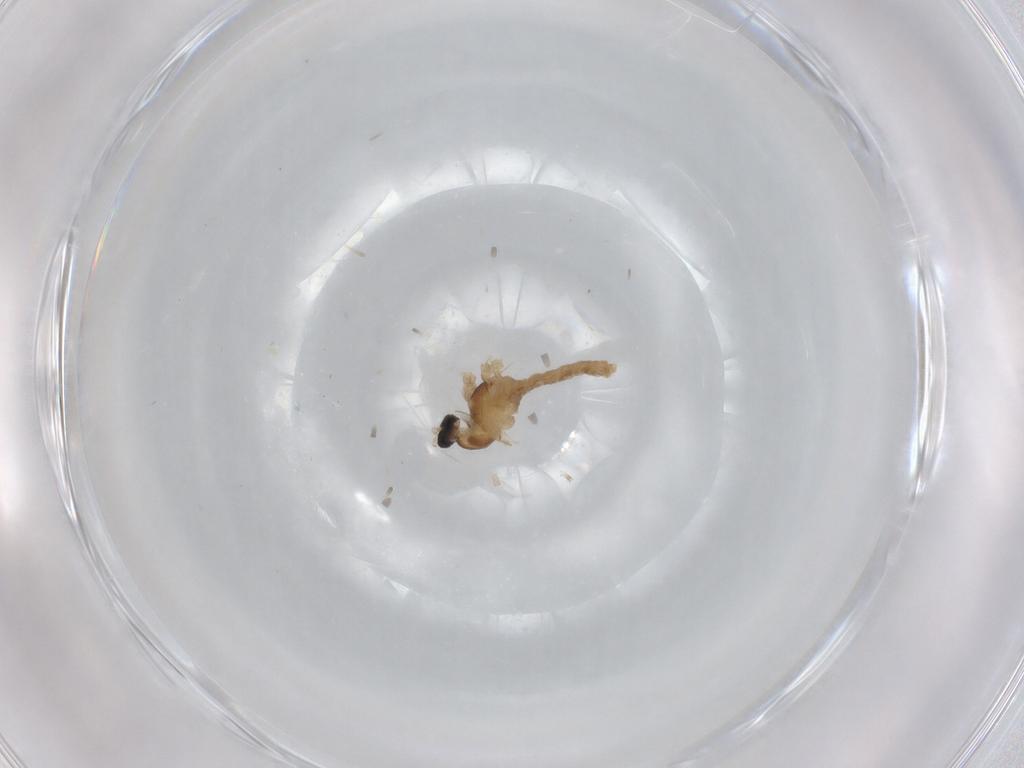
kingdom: Animalia
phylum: Arthropoda
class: Insecta
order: Diptera
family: Cecidomyiidae
